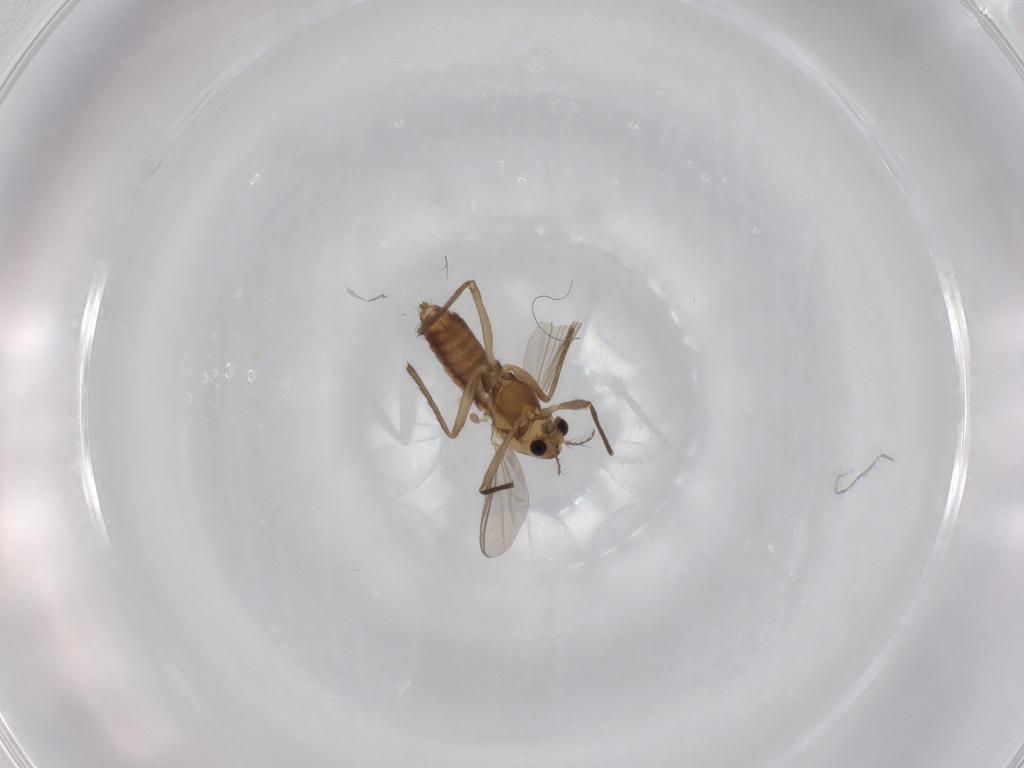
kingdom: Animalia
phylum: Arthropoda
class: Insecta
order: Diptera
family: Chironomidae
